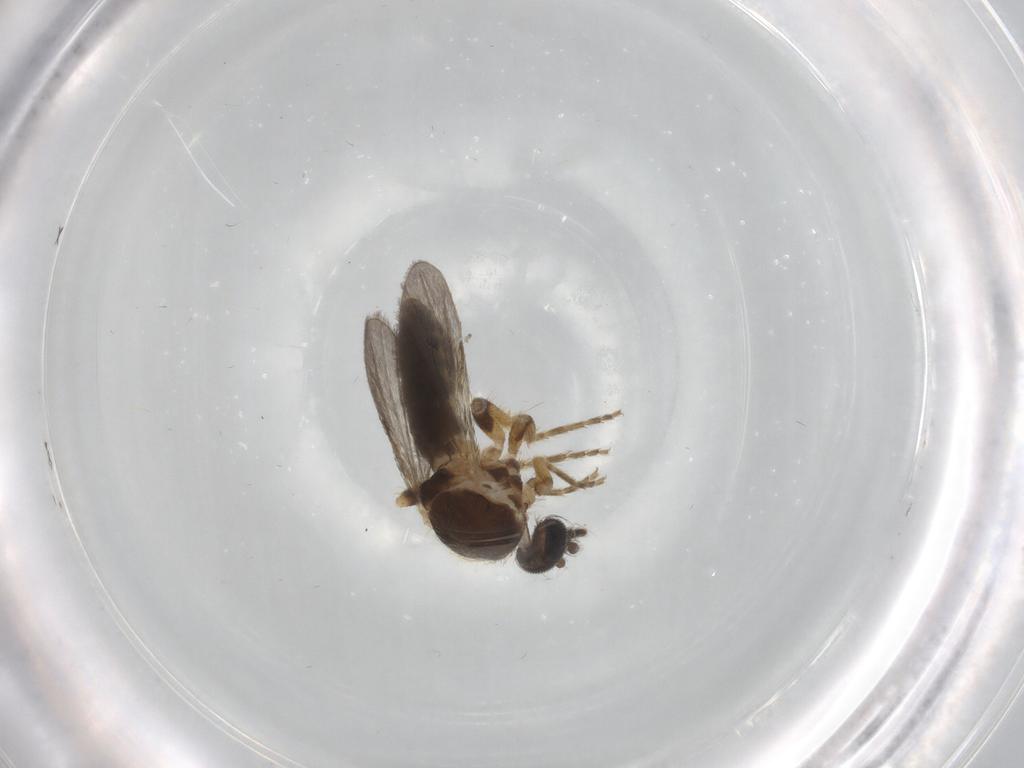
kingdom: Animalia
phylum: Arthropoda
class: Insecta
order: Diptera
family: Ceratopogonidae
